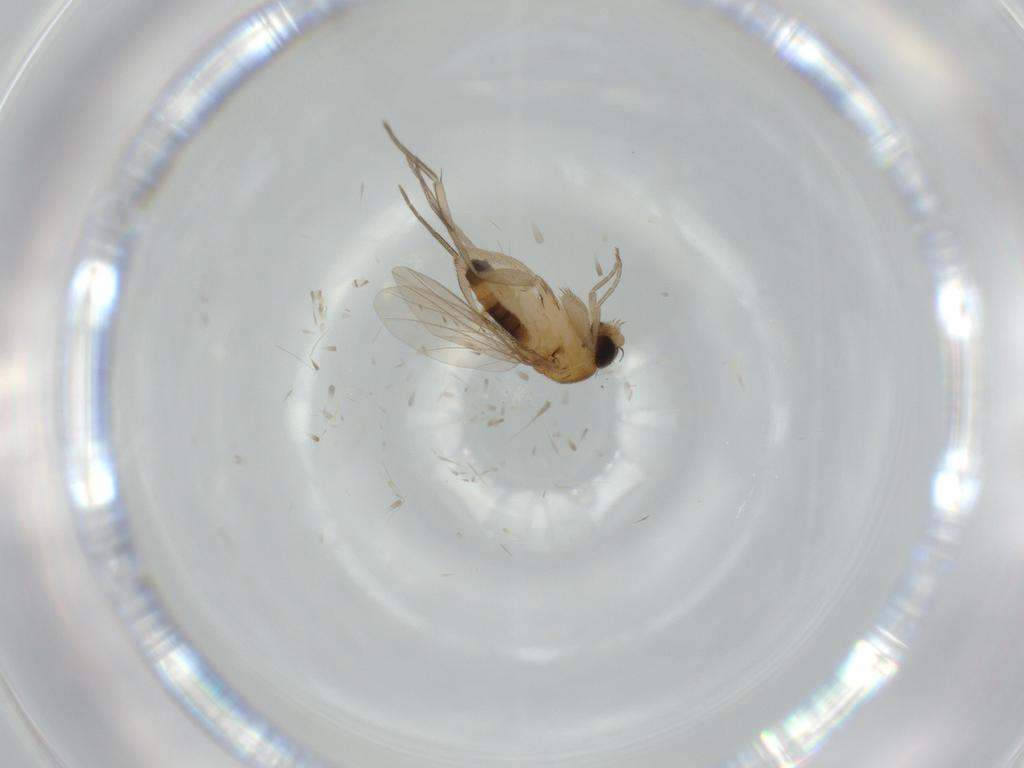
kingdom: Animalia
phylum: Arthropoda
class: Insecta
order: Diptera
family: Phoridae
